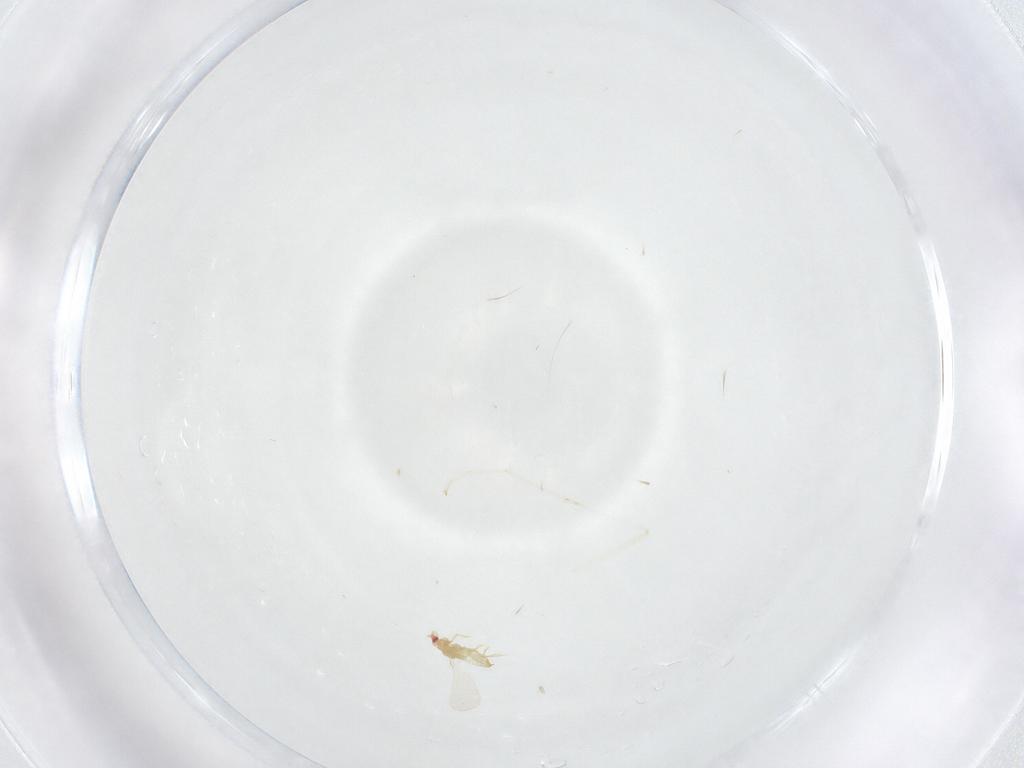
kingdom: Animalia
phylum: Arthropoda
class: Insecta
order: Diptera
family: Cecidomyiidae
